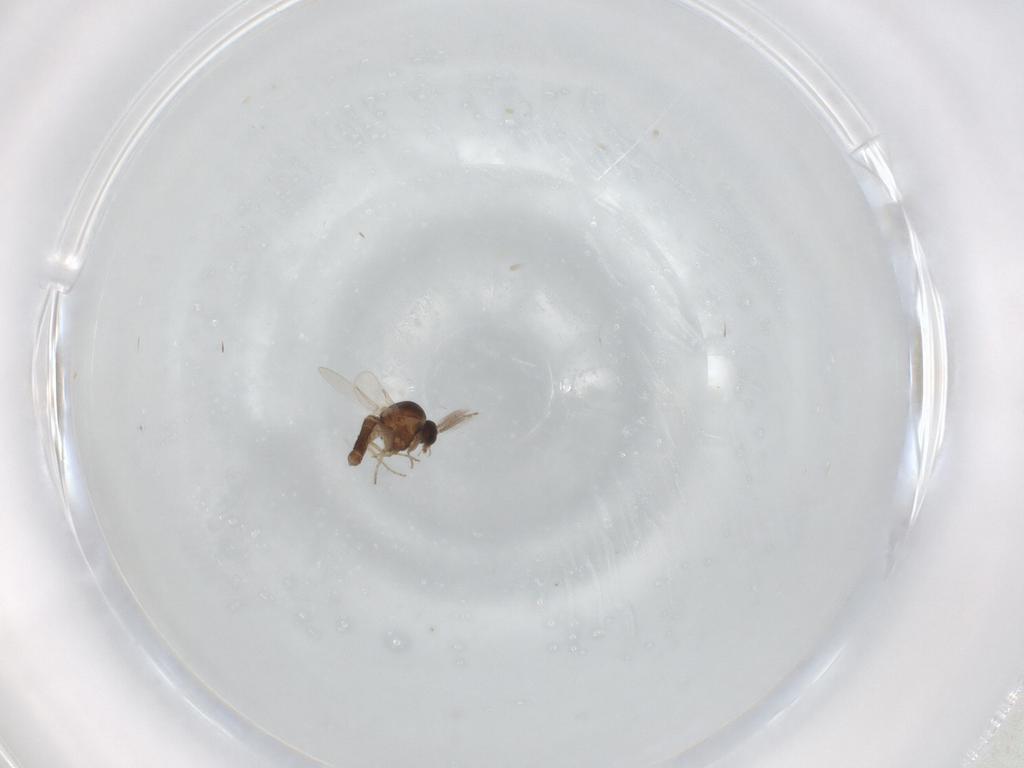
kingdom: Animalia
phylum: Arthropoda
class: Insecta
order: Diptera
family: Ceratopogonidae
